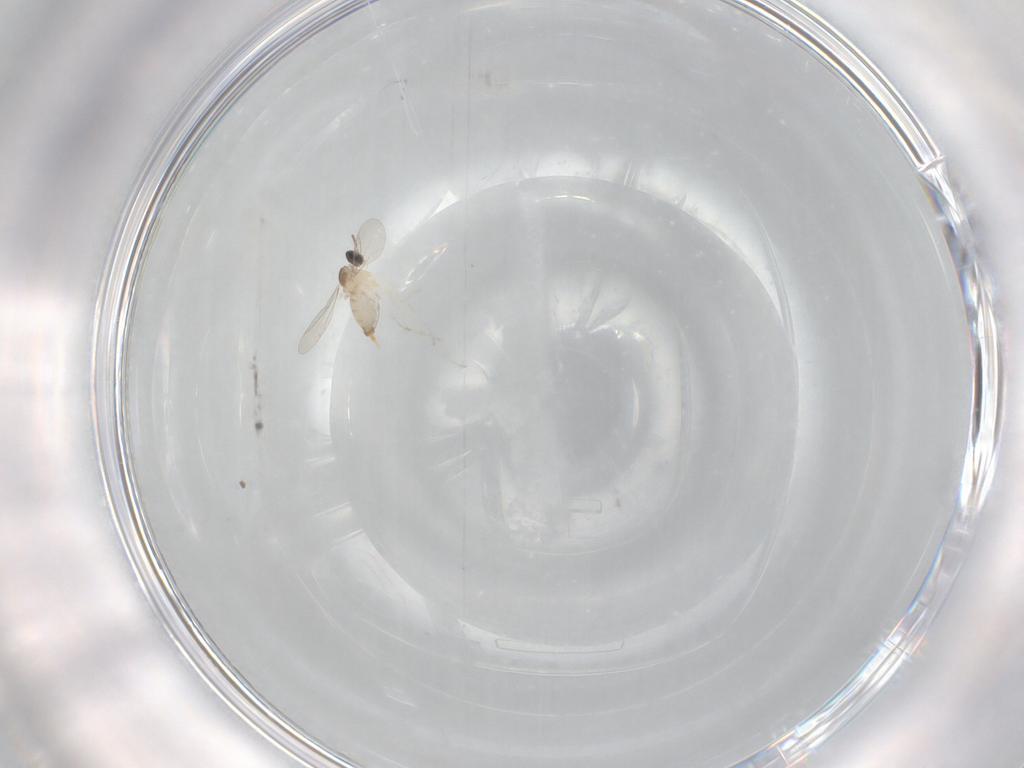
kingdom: Animalia
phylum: Arthropoda
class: Insecta
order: Diptera
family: Cecidomyiidae
